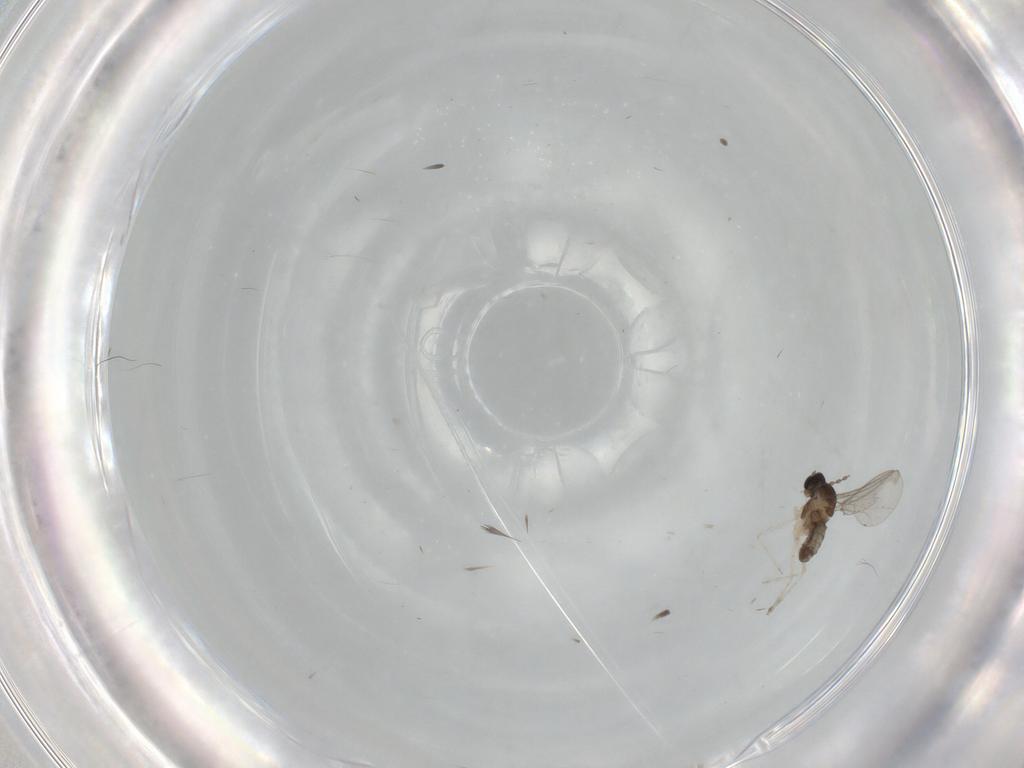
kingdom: Animalia
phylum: Arthropoda
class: Insecta
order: Diptera
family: Cecidomyiidae
